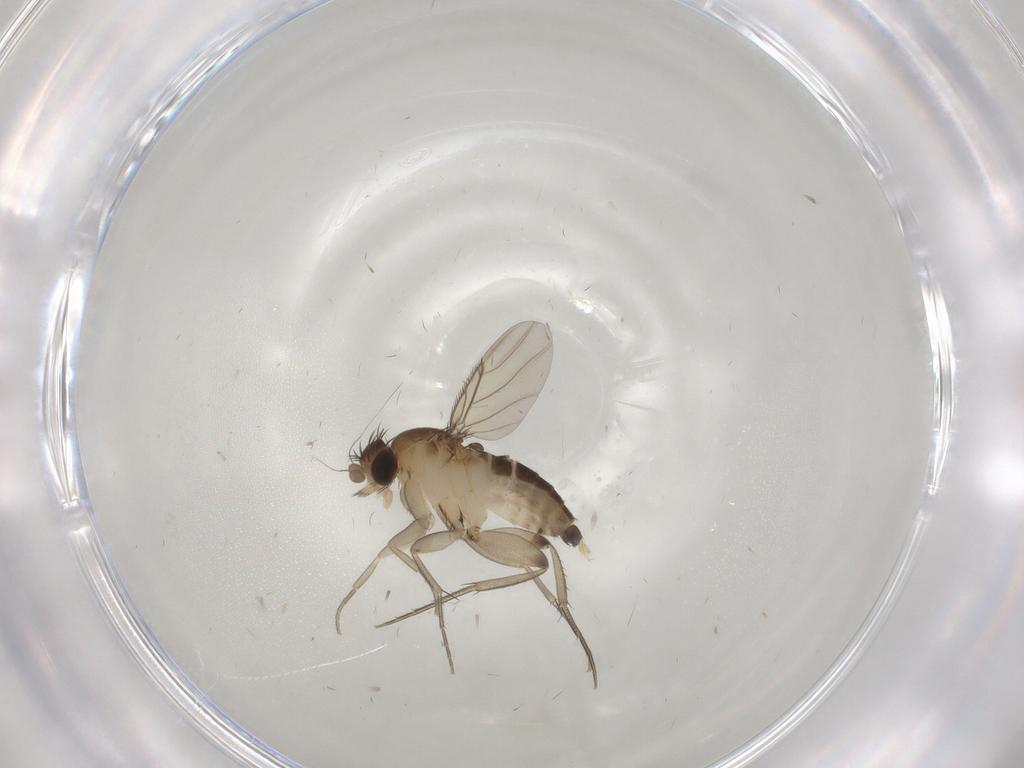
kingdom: Animalia
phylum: Arthropoda
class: Insecta
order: Diptera
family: Phoridae
